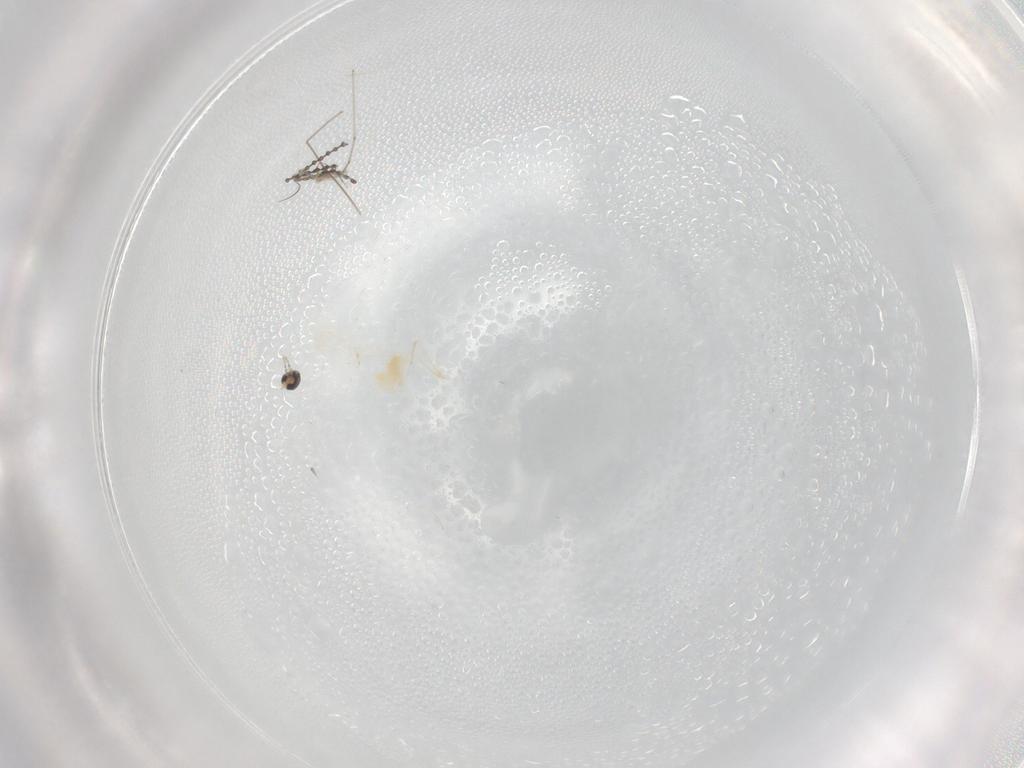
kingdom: Animalia
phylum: Arthropoda
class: Insecta
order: Diptera
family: Cecidomyiidae
